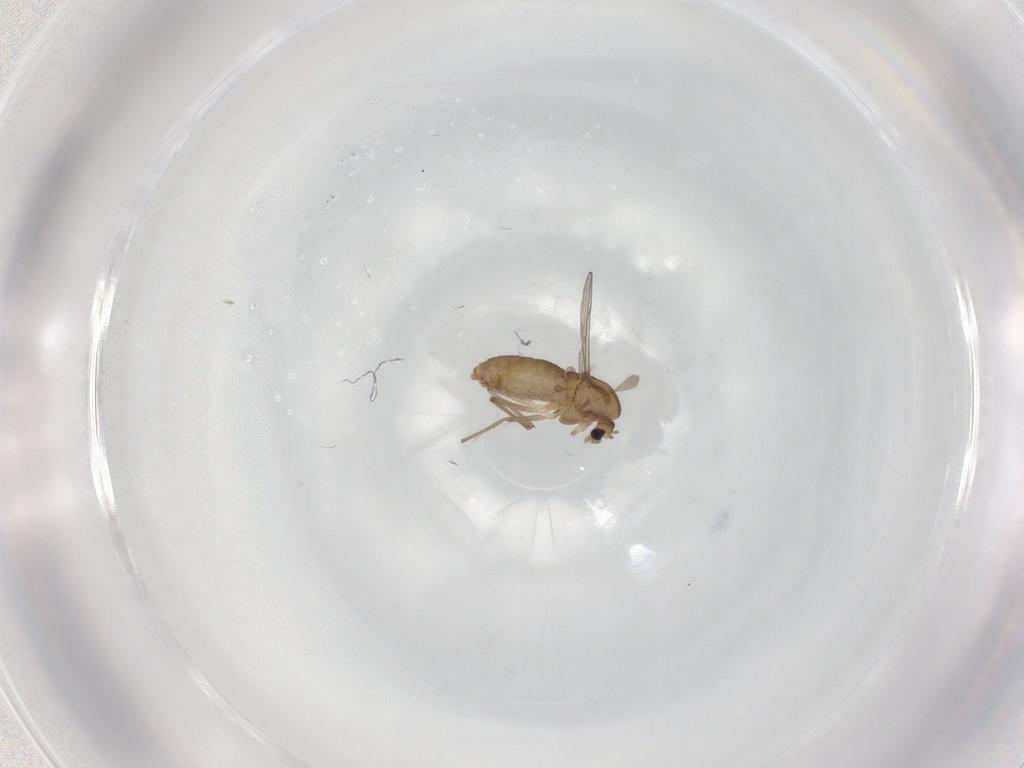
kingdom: Animalia
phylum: Arthropoda
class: Insecta
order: Diptera
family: Chironomidae
